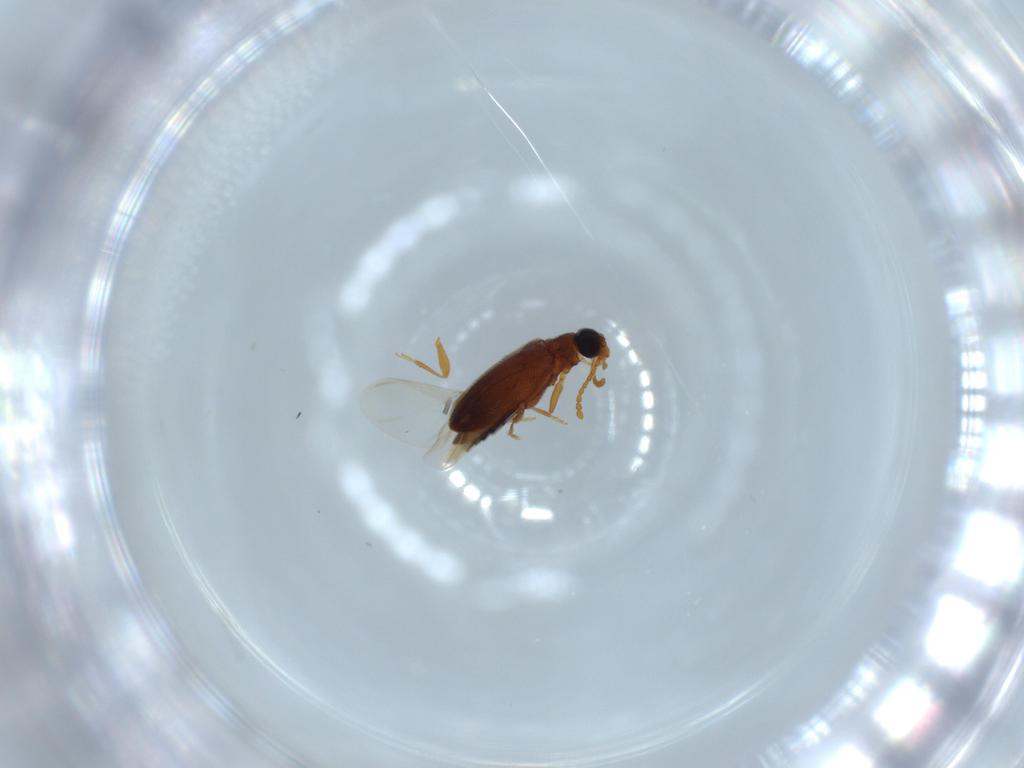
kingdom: Animalia
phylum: Arthropoda
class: Insecta
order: Coleoptera
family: Aderidae
